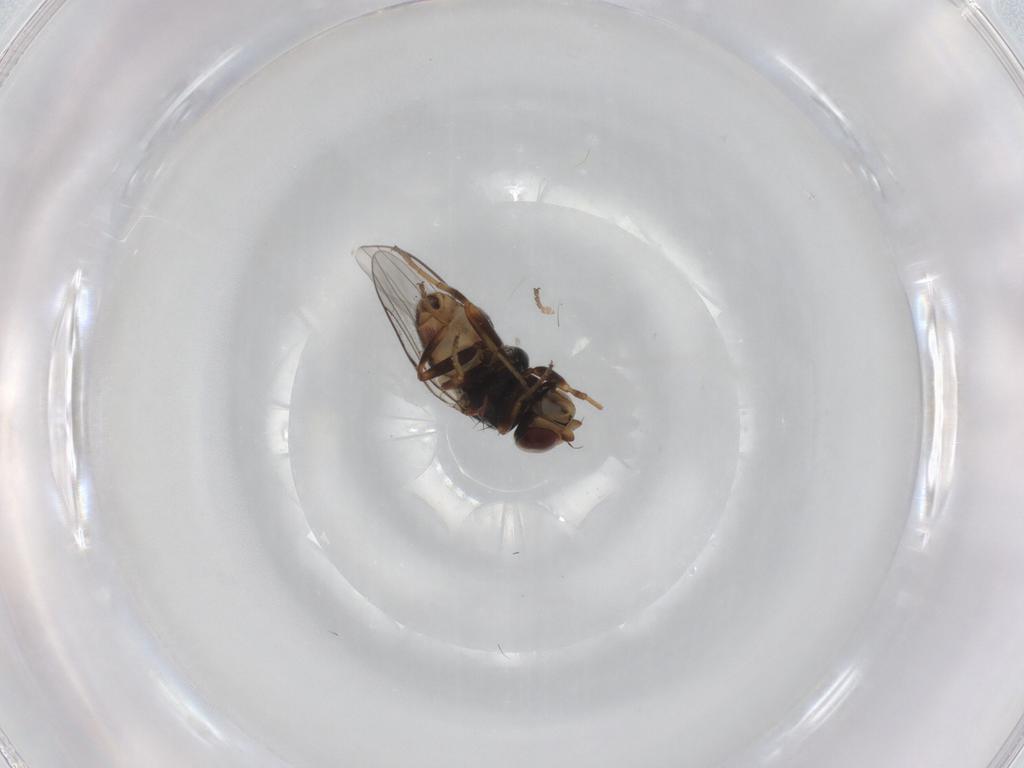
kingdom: Animalia
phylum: Arthropoda
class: Insecta
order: Diptera
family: Chloropidae
